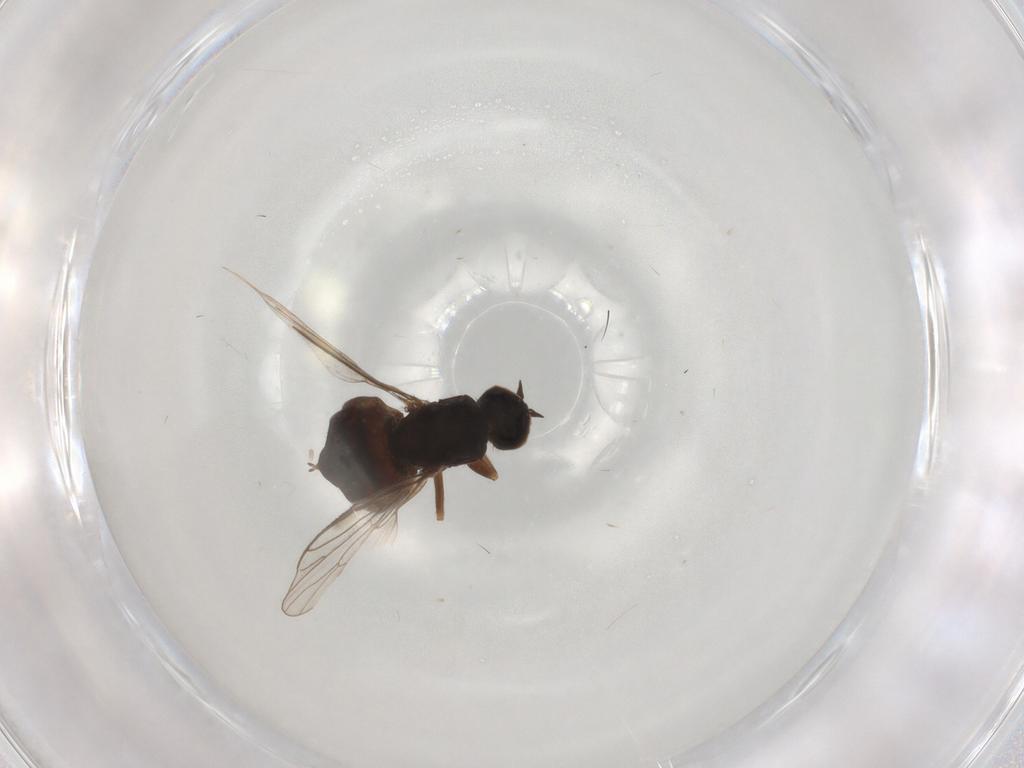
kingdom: Animalia
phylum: Arthropoda
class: Insecta
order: Diptera
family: Empididae
